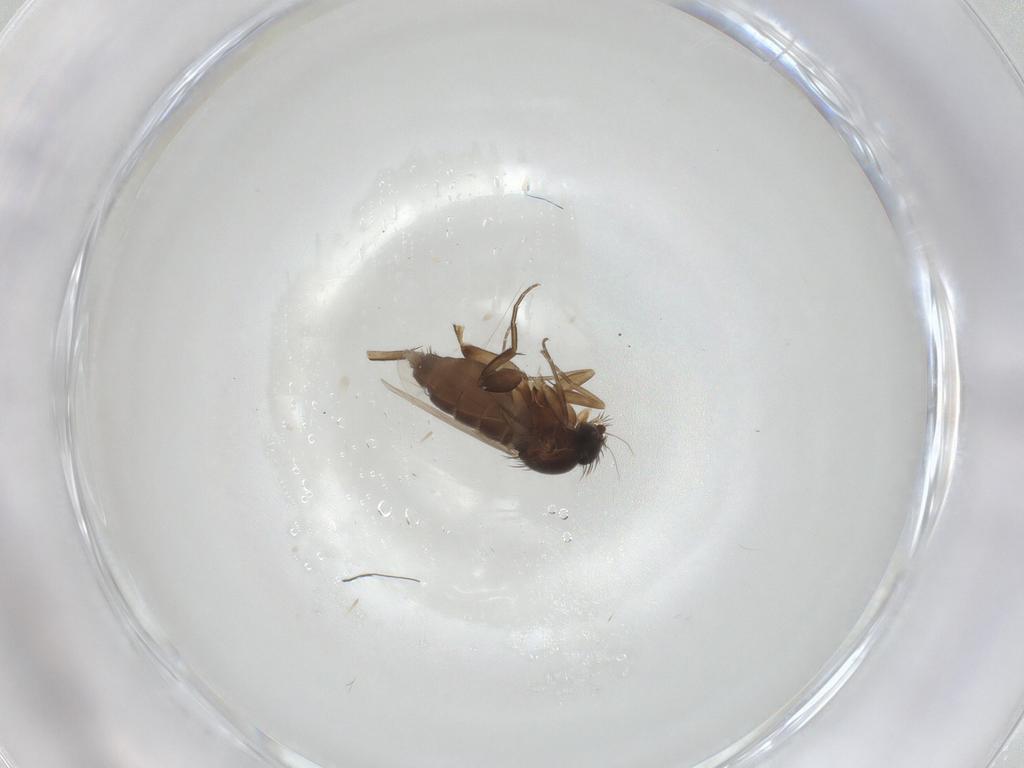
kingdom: Animalia
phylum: Arthropoda
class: Insecta
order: Diptera
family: Phoridae
